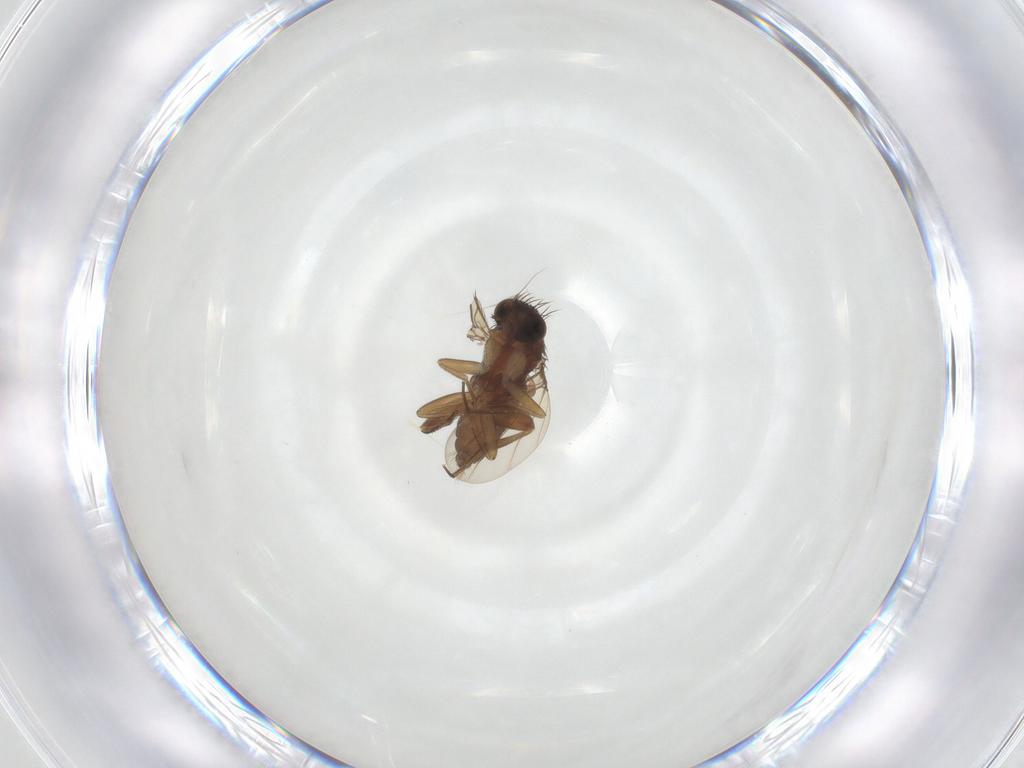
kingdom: Animalia
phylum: Arthropoda
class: Insecta
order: Diptera
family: Phoridae
